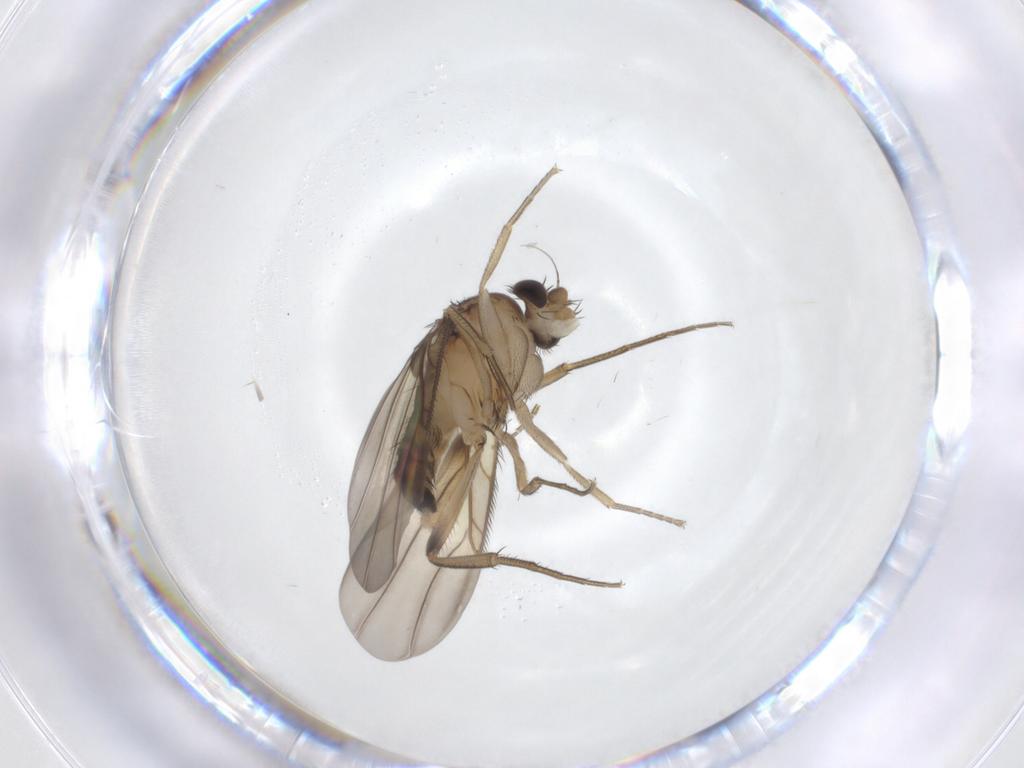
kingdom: Animalia
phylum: Arthropoda
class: Insecta
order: Diptera
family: Phoridae
